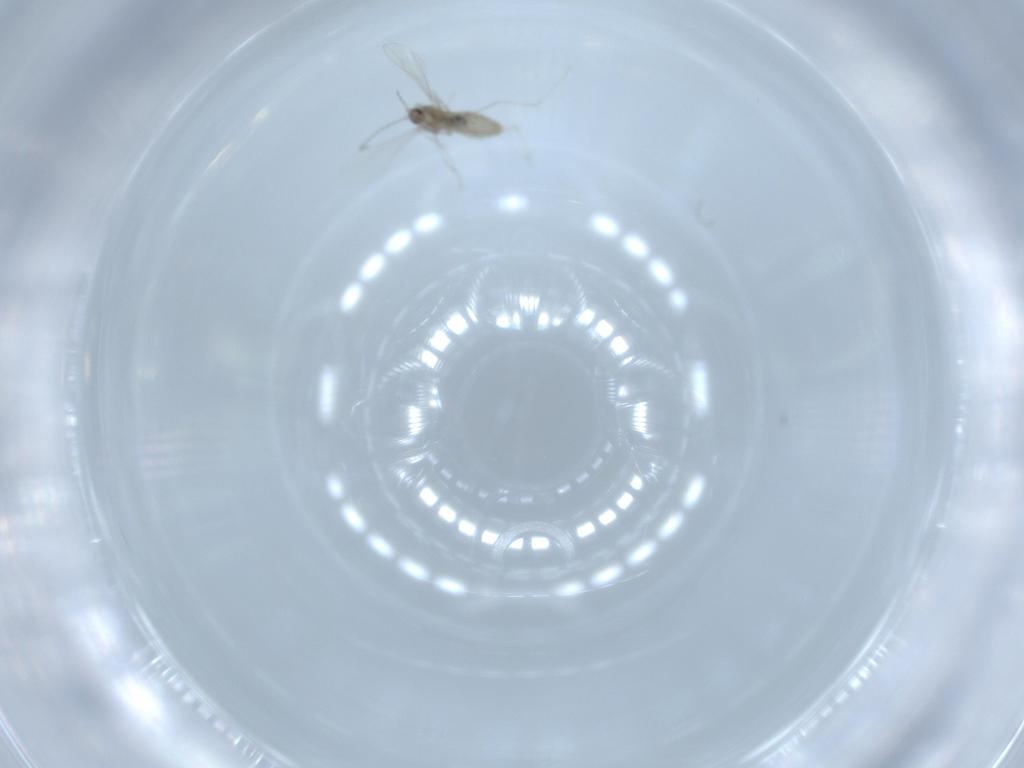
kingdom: Animalia
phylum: Arthropoda
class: Insecta
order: Diptera
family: Cecidomyiidae
